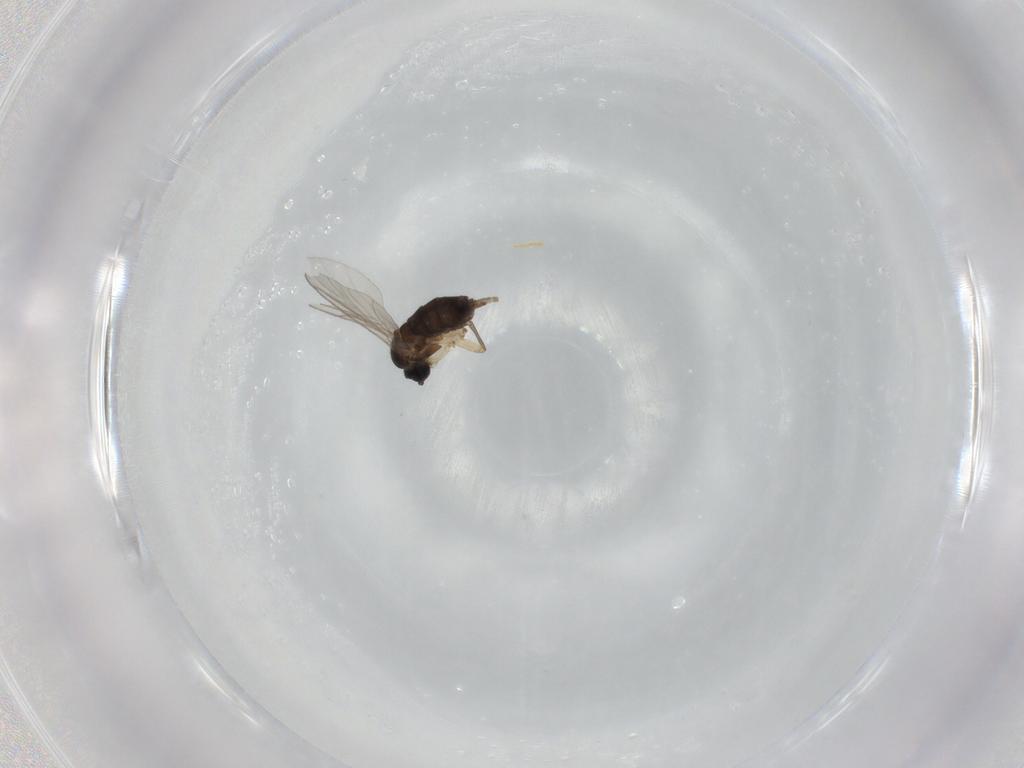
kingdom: Animalia
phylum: Arthropoda
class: Insecta
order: Diptera
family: Sciaridae
